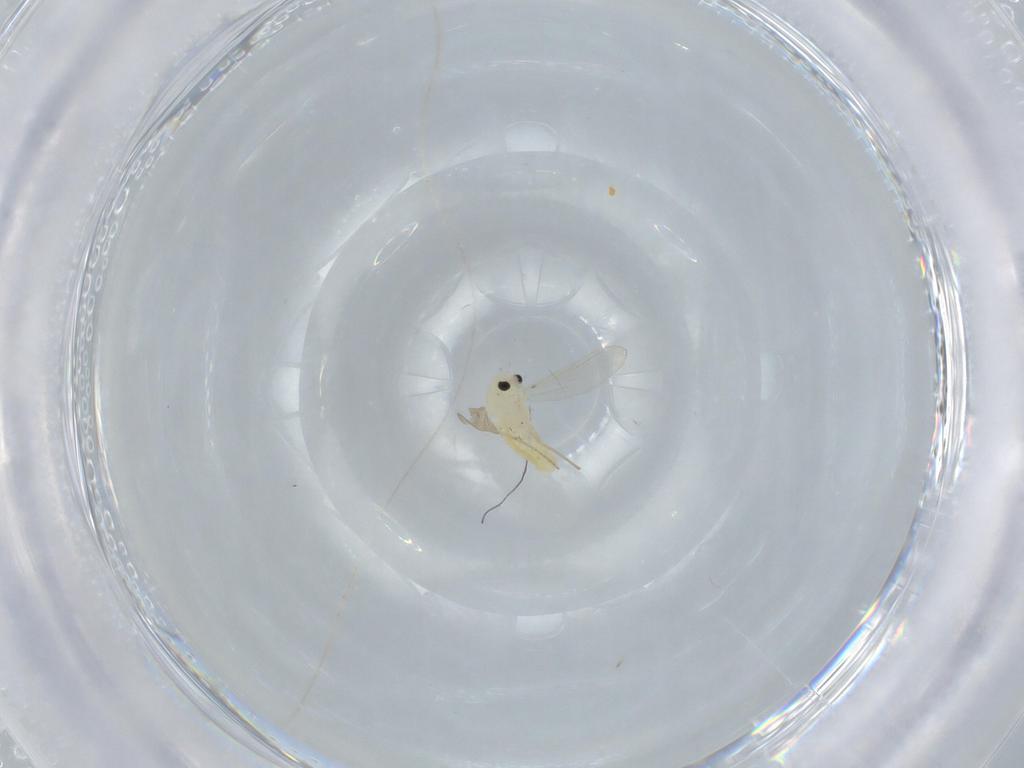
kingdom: Animalia
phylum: Arthropoda
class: Insecta
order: Diptera
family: Chironomidae
